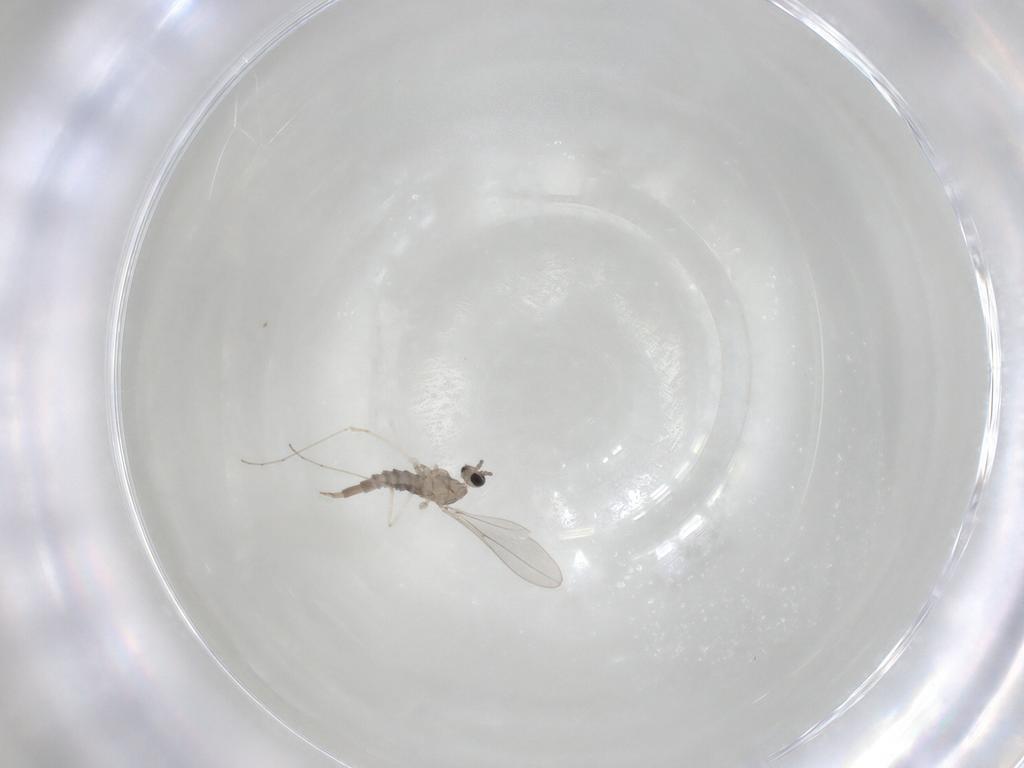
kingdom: Animalia
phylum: Arthropoda
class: Insecta
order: Diptera
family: Cecidomyiidae
